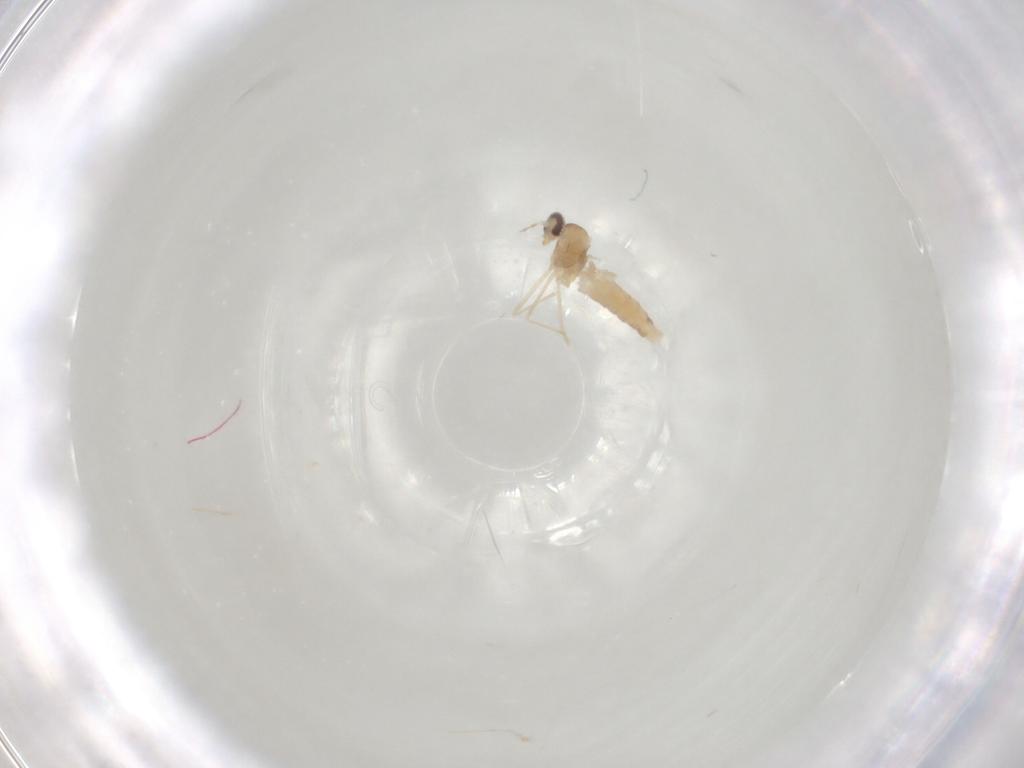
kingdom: Animalia
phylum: Arthropoda
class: Insecta
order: Diptera
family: Cecidomyiidae
